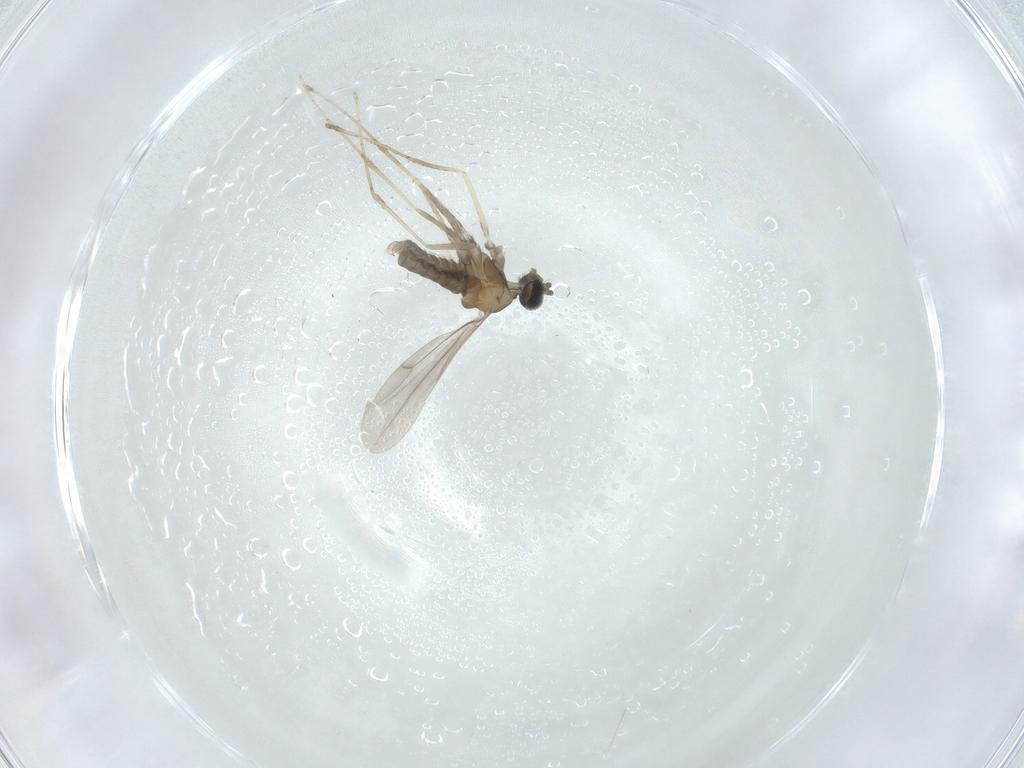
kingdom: Animalia
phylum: Arthropoda
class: Insecta
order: Diptera
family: Cecidomyiidae
